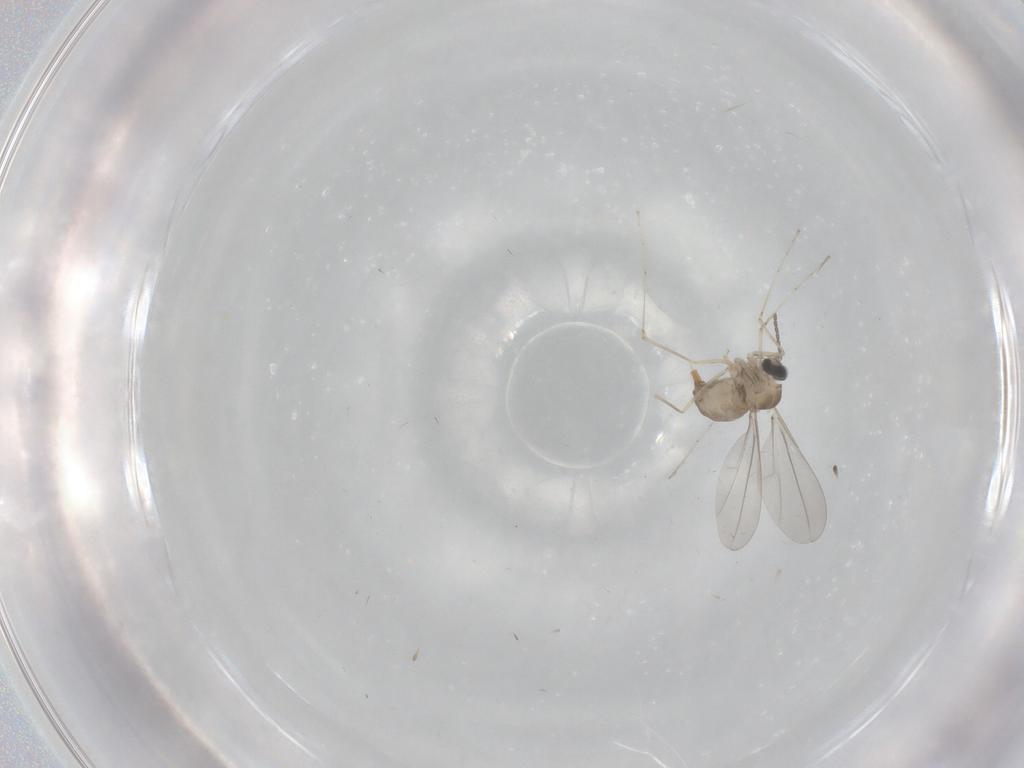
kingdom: Animalia
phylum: Arthropoda
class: Insecta
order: Diptera
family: Cecidomyiidae
